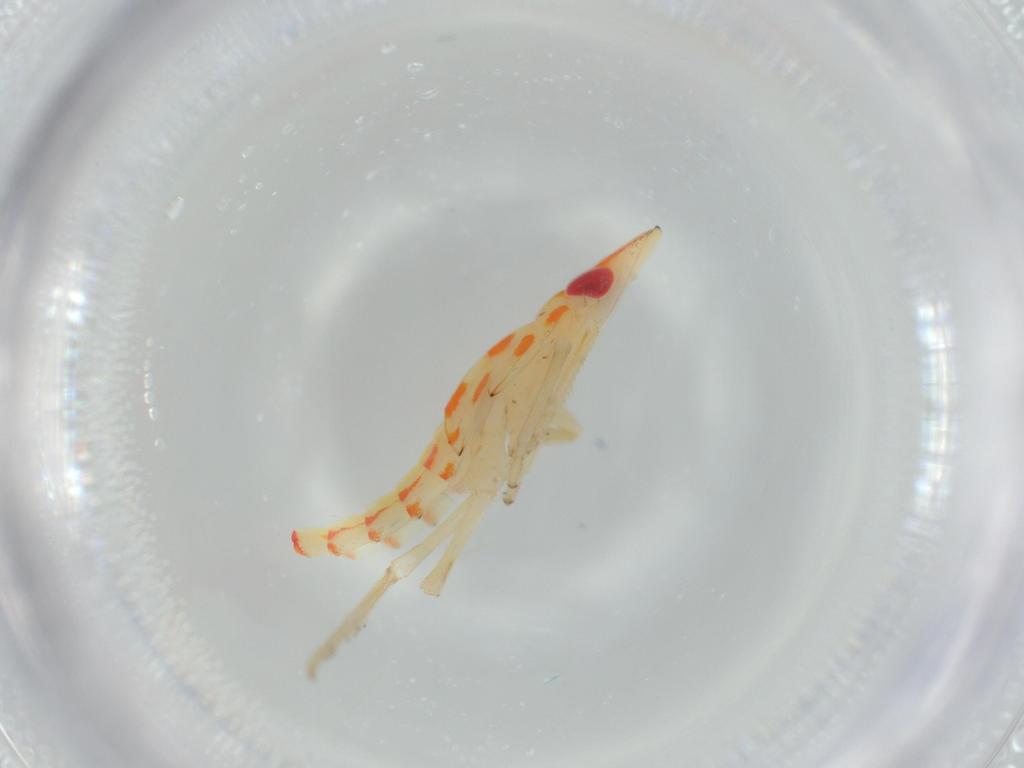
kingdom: Animalia
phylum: Arthropoda
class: Insecta
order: Hemiptera
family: Tropiduchidae
